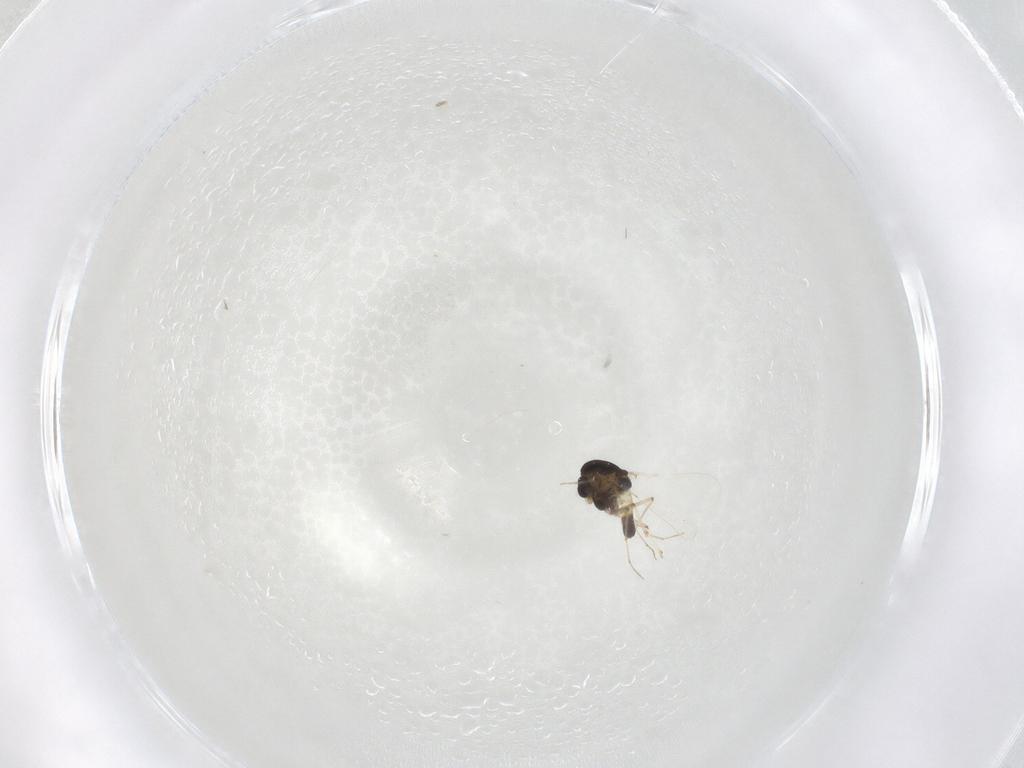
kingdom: Animalia
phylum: Arthropoda
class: Insecta
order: Diptera
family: Chironomidae
